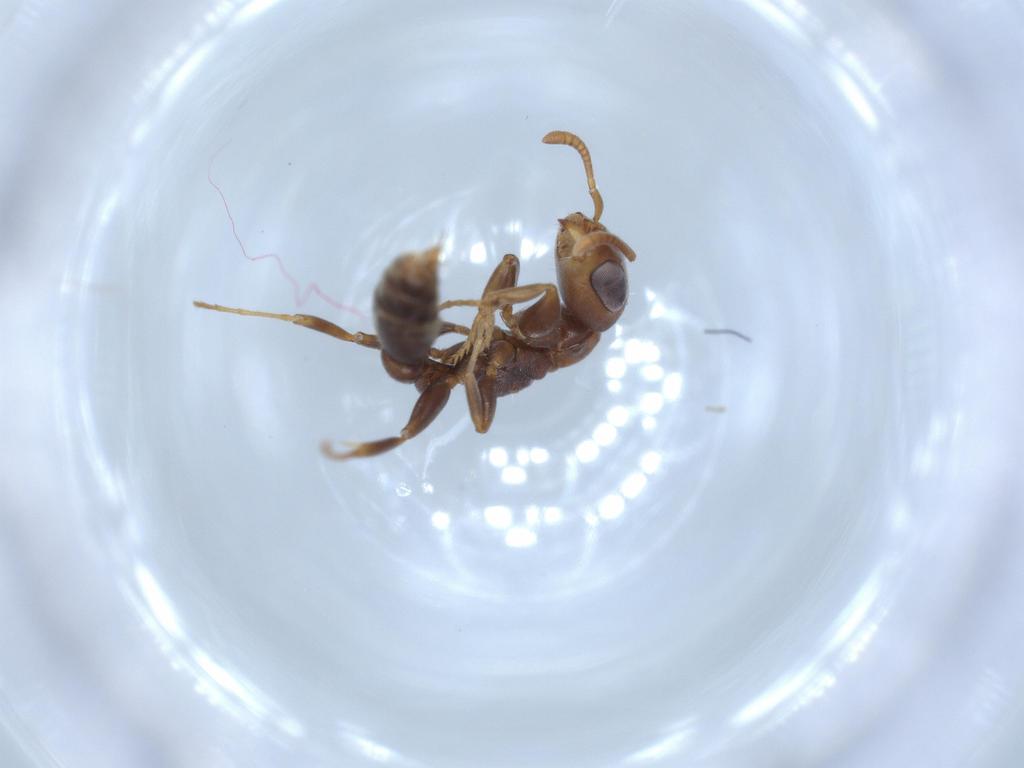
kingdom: Animalia
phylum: Arthropoda
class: Insecta
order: Hymenoptera
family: Formicidae
